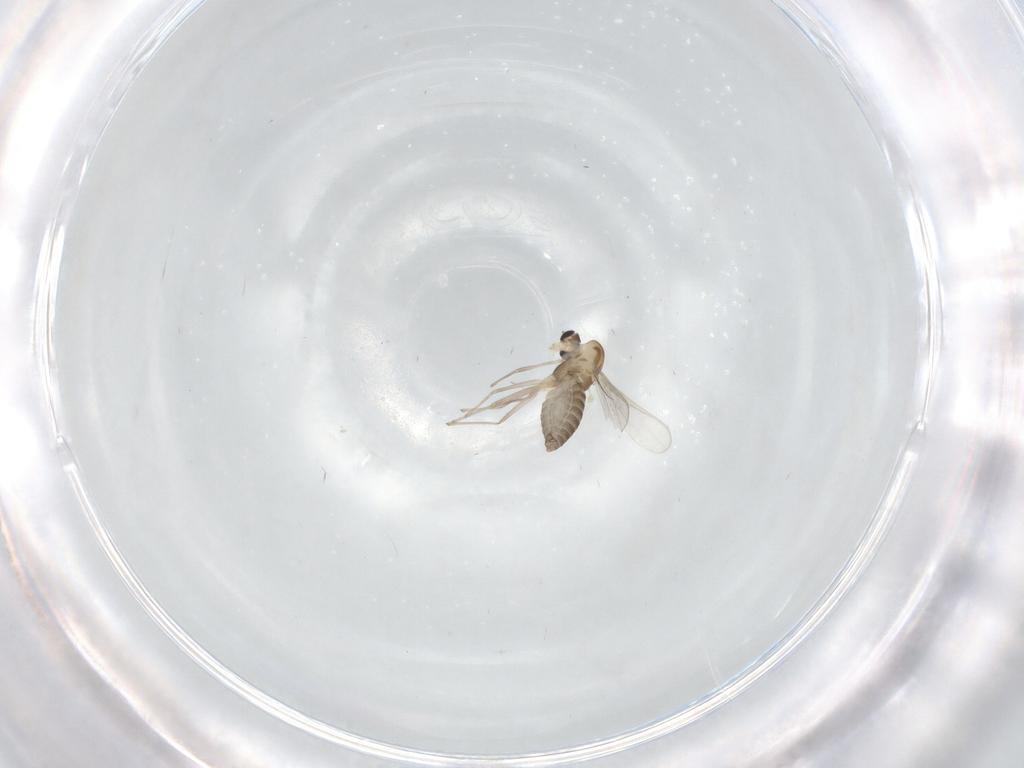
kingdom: Animalia
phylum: Arthropoda
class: Insecta
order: Diptera
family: Chironomidae
